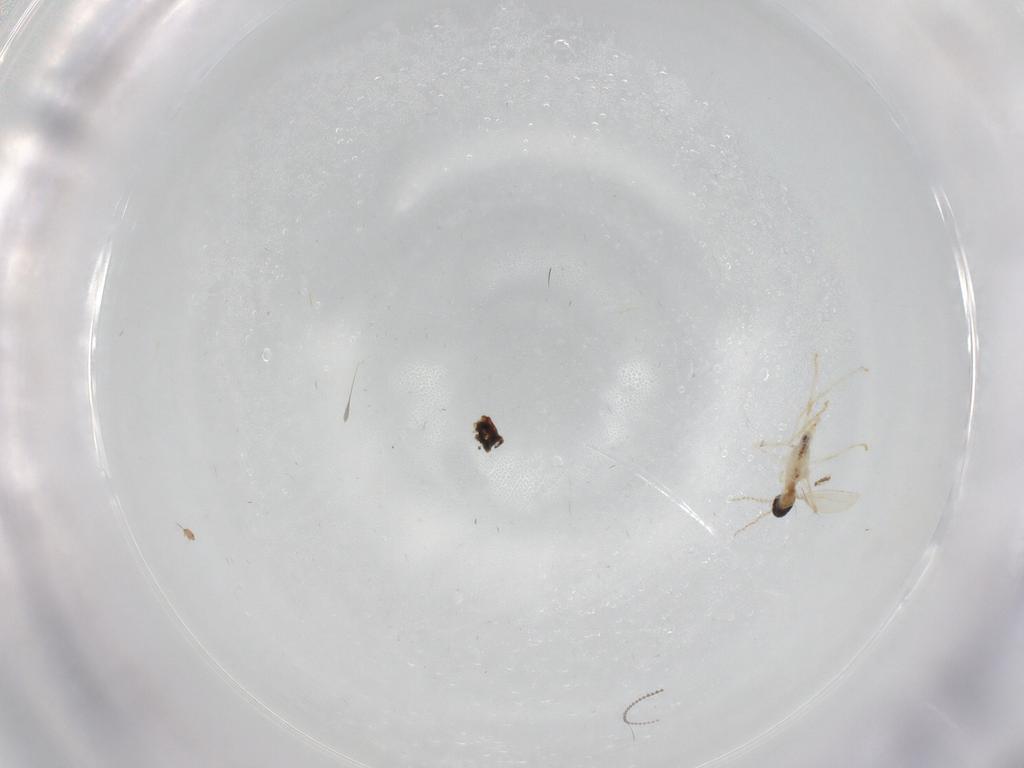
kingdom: Animalia
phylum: Arthropoda
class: Insecta
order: Diptera
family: Cecidomyiidae
